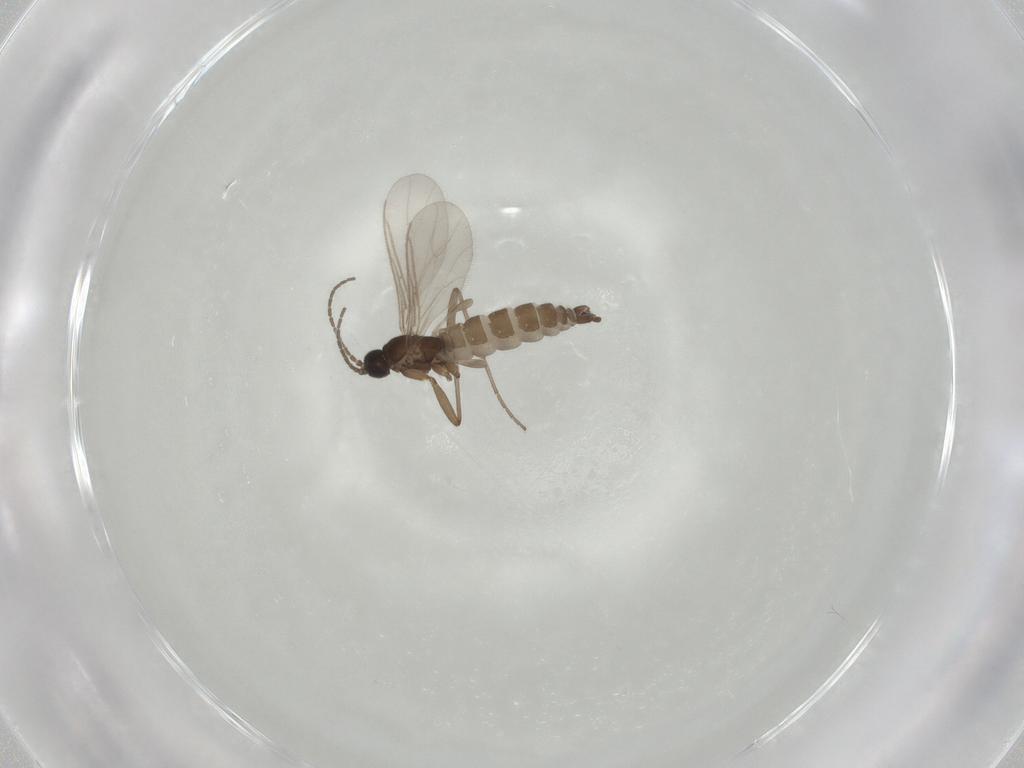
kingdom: Animalia
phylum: Arthropoda
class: Insecta
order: Diptera
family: Sciaridae
